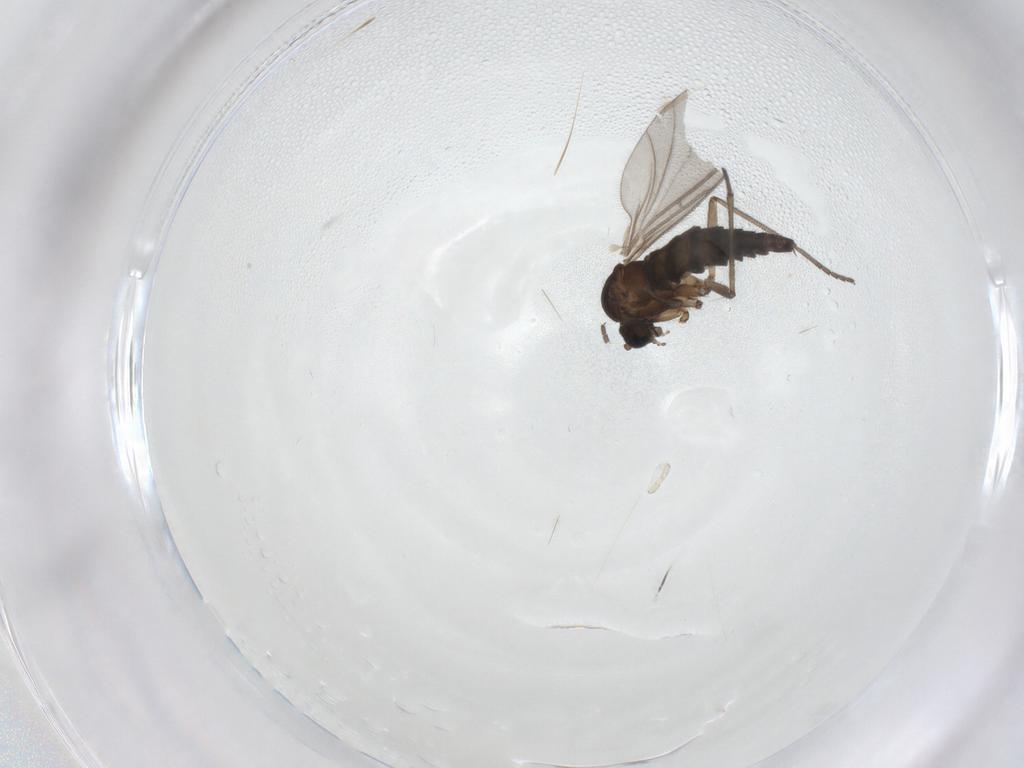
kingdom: Animalia
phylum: Arthropoda
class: Insecta
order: Diptera
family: Sciaridae
